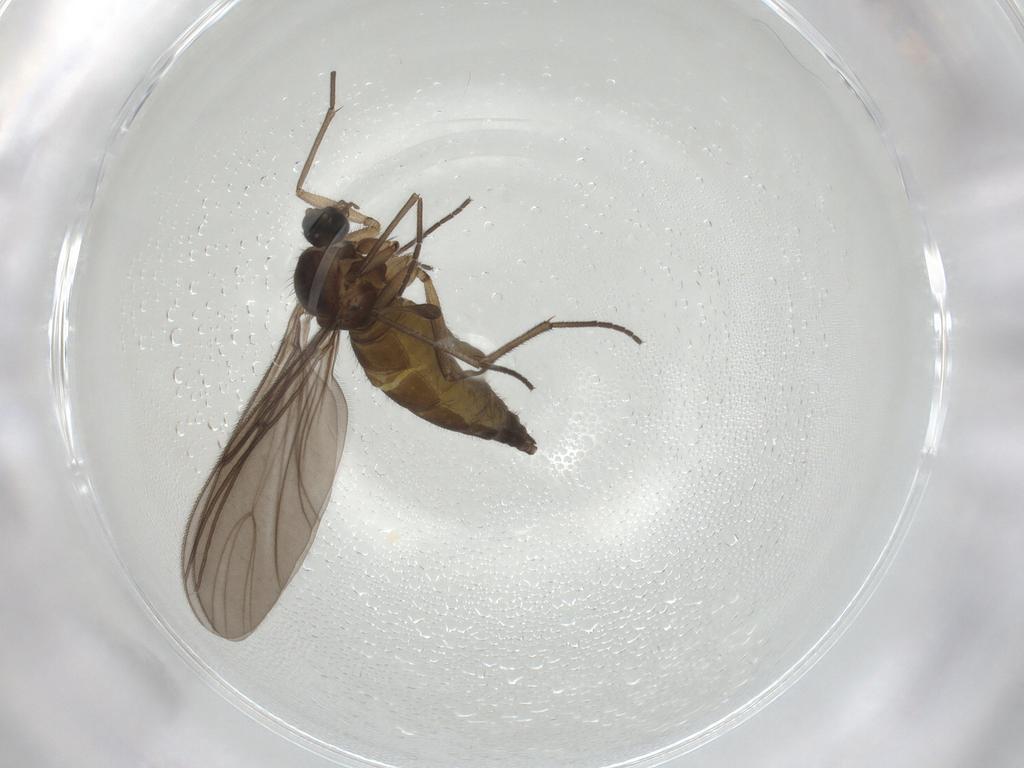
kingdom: Animalia
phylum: Arthropoda
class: Insecta
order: Diptera
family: Sciaridae
